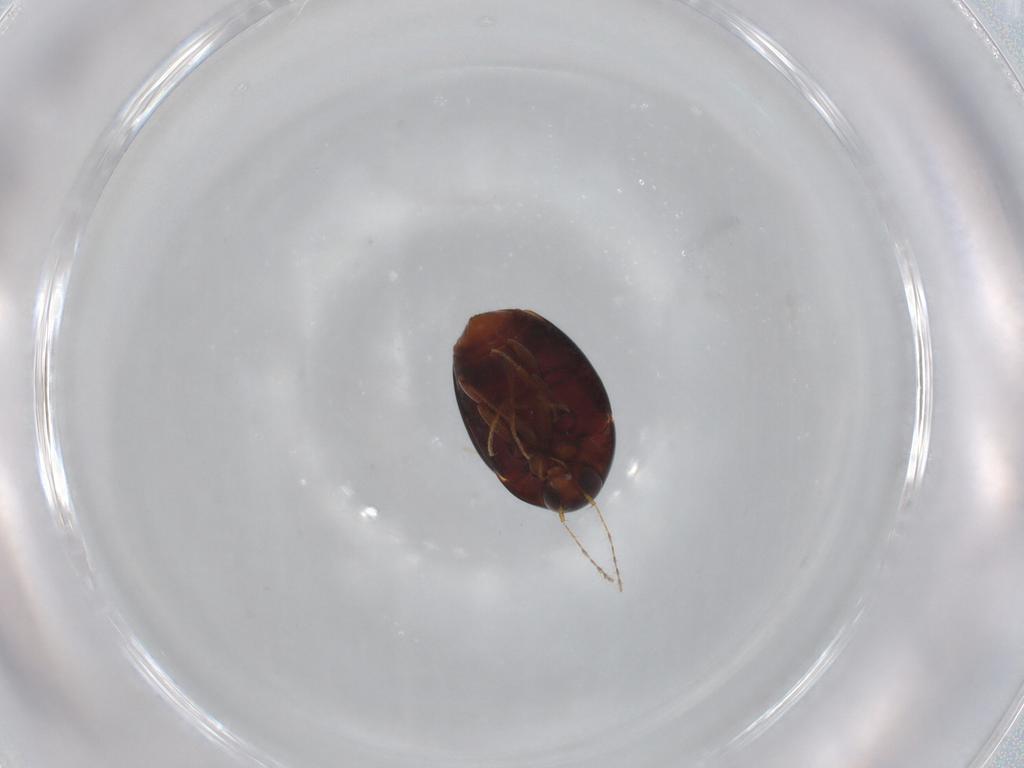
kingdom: Animalia
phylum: Arthropoda
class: Insecta
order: Coleoptera
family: Staphylinidae
